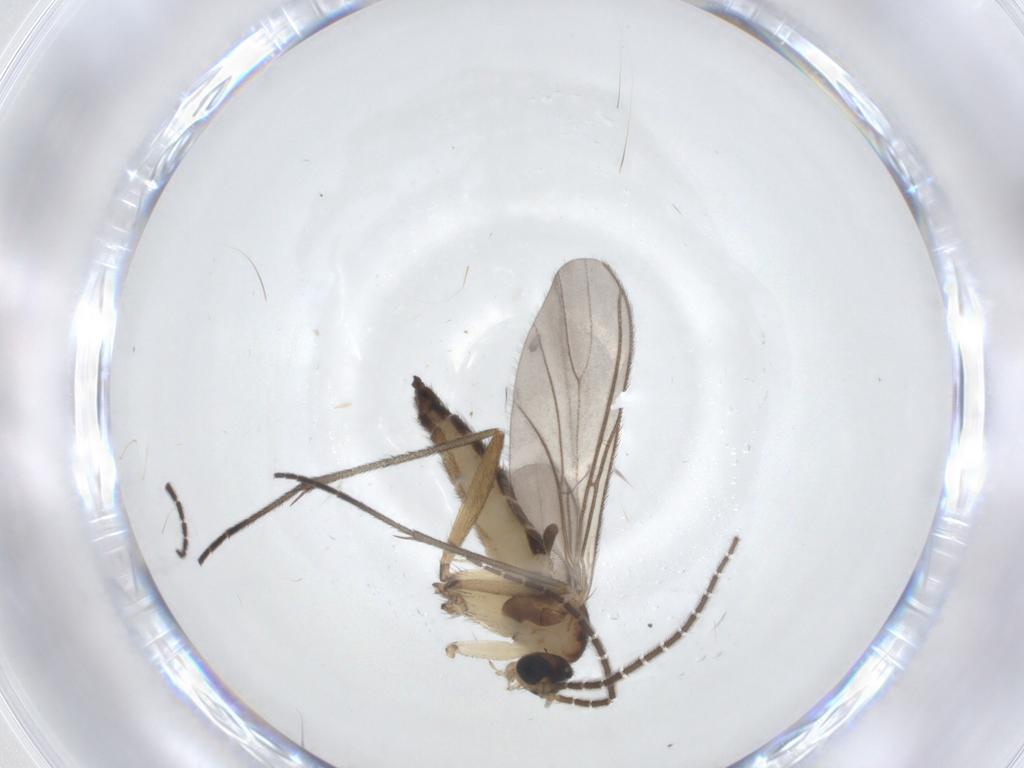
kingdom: Animalia
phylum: Arthropoda
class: Insecta
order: Diptera
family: Sciaridae
